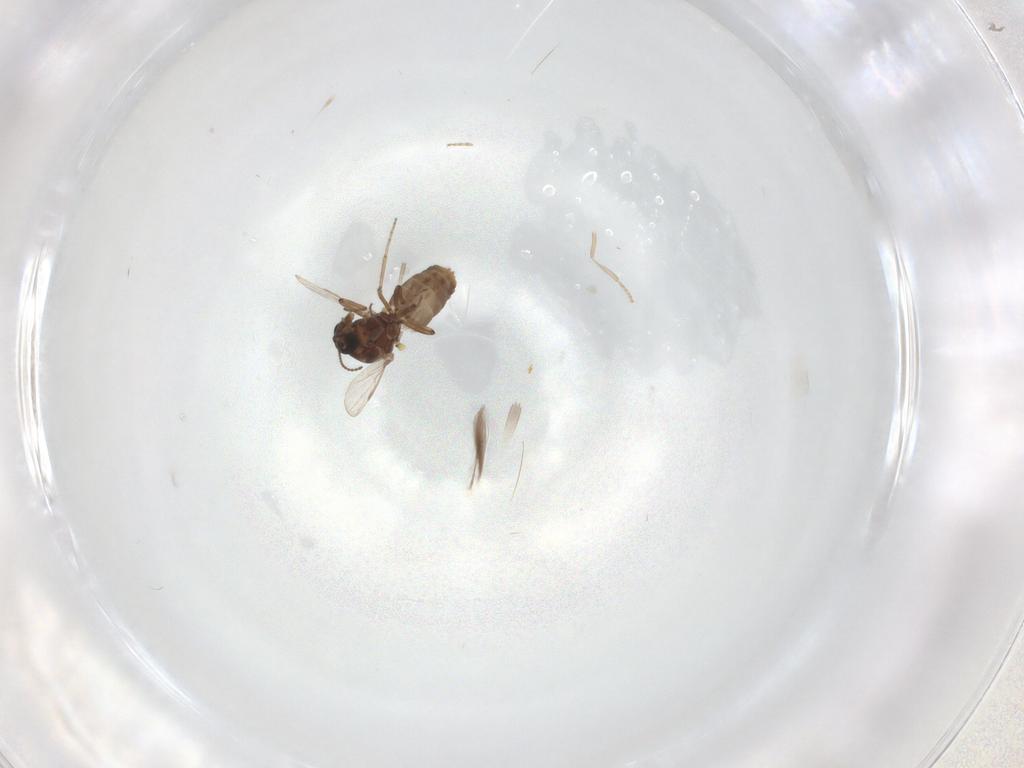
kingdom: Animalia
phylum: Arthropoda
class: Insecta
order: Diptera
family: Ceratopogonidae
